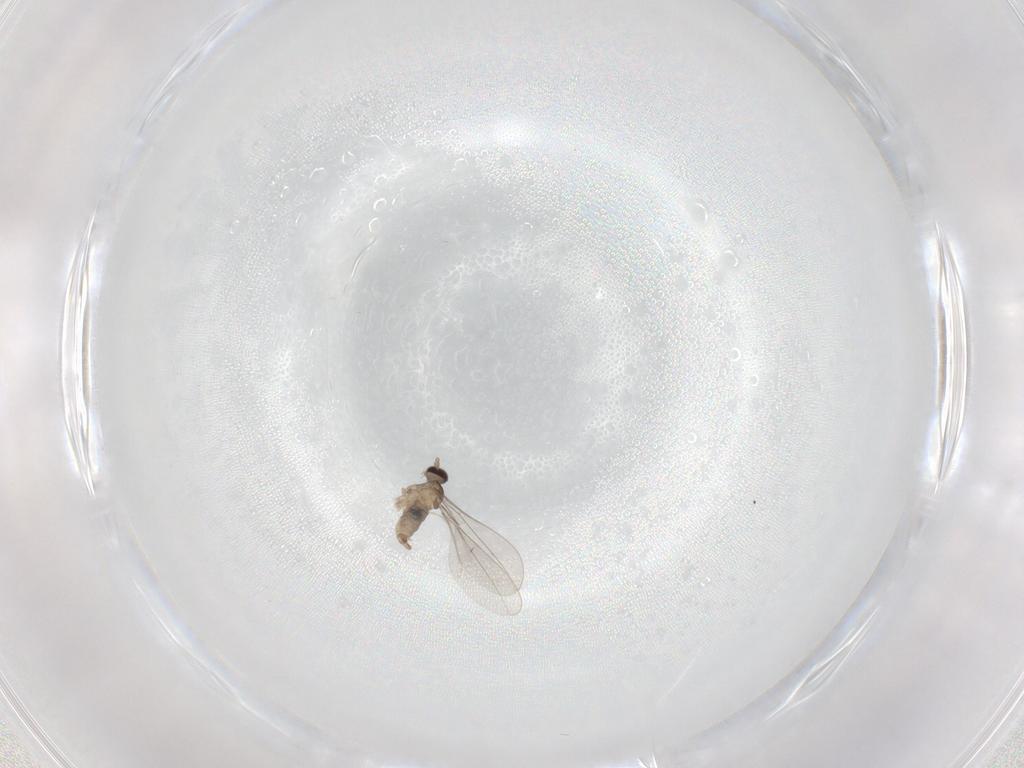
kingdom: Animalia
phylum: Arthropoda
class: Insecta
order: Diptera
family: Cecidomyiidae
